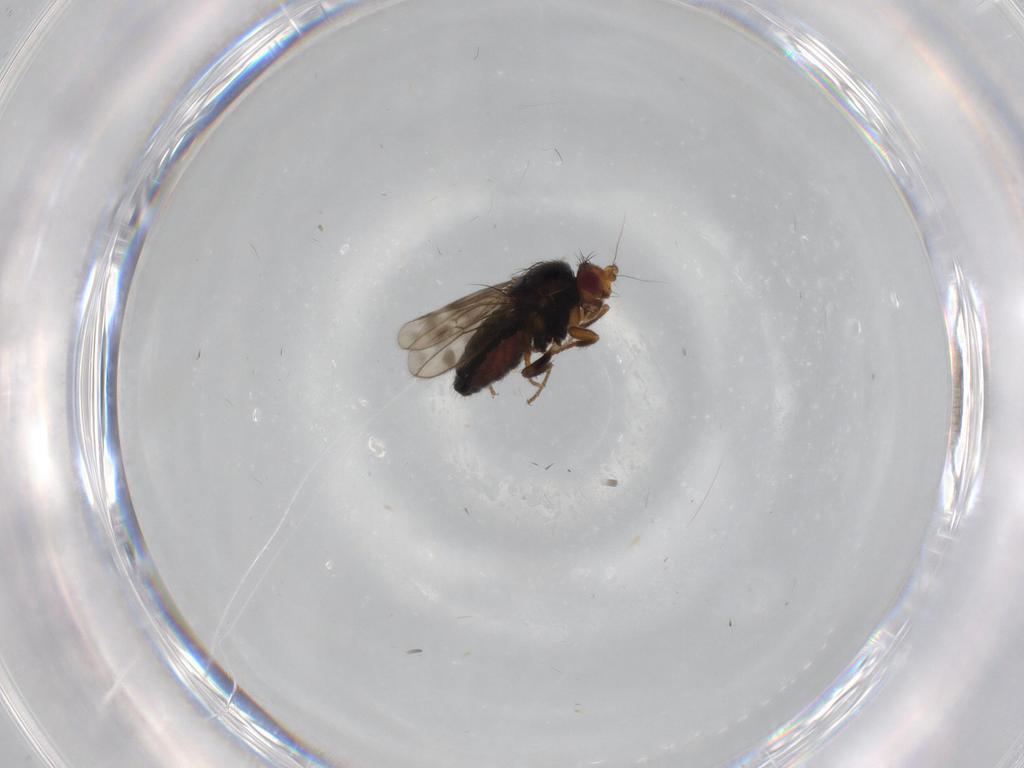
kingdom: Animalia
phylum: Arthropoda
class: Insecta
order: Diptera
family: Sphaeroceridae
